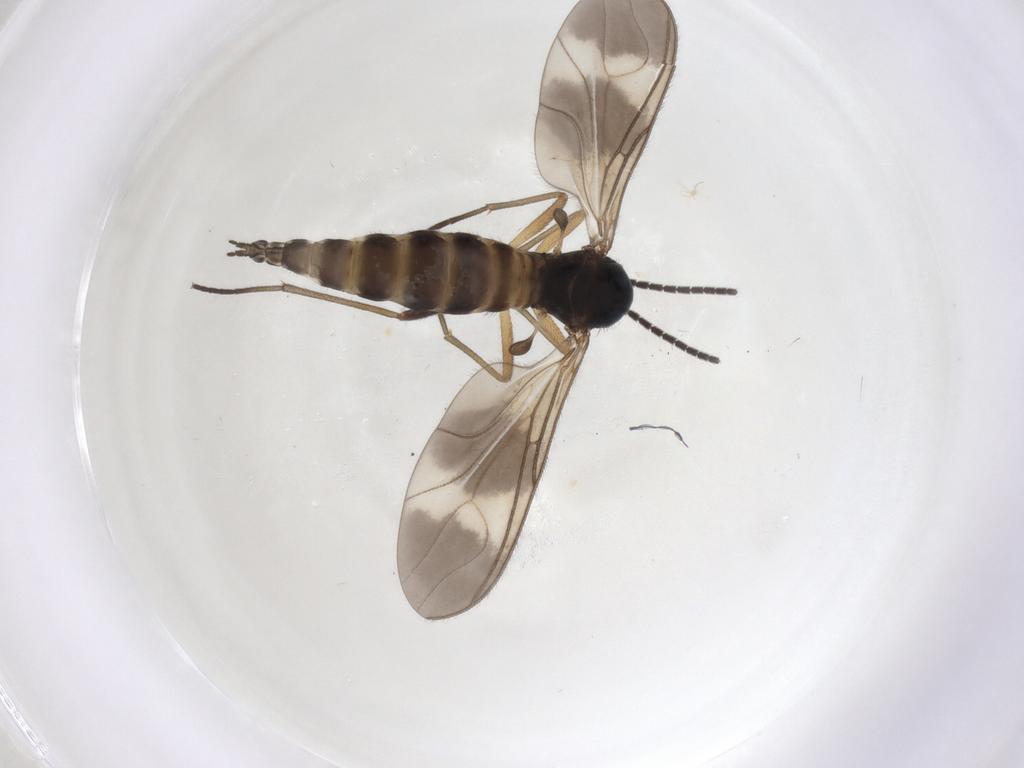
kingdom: Animalia
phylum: Arthropoda
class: Insecta
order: Diptera
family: Sciaridae
